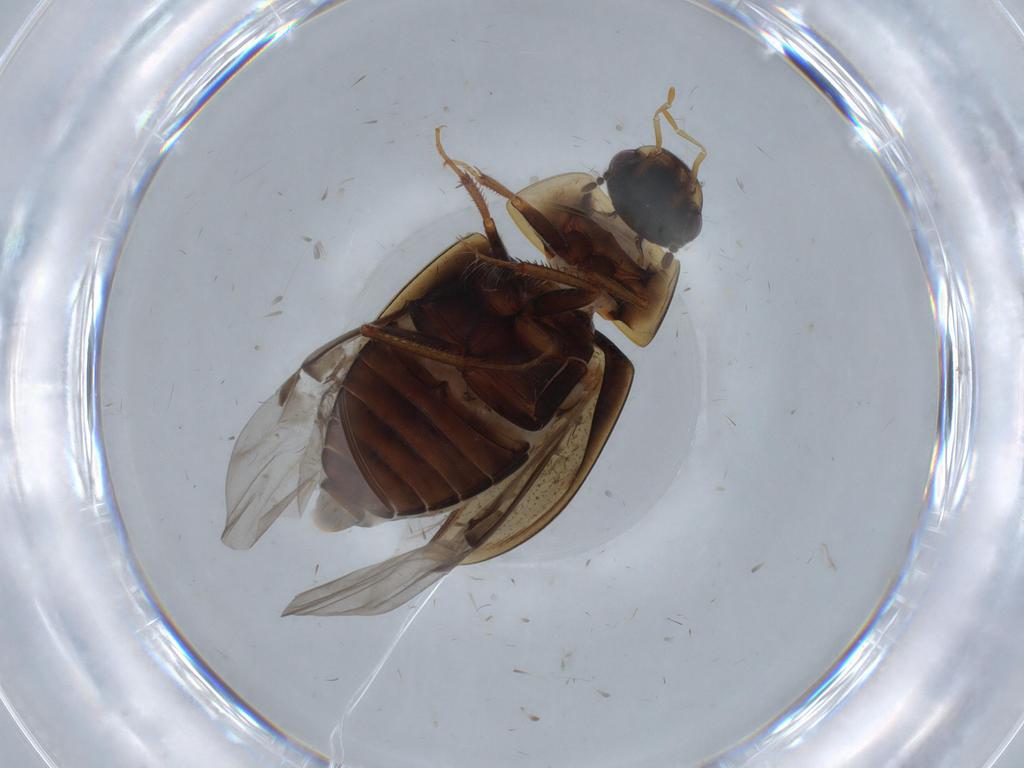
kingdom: Animalia
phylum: Arthropoda
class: Insecta
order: Coleoptera
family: Hydrophilidae
